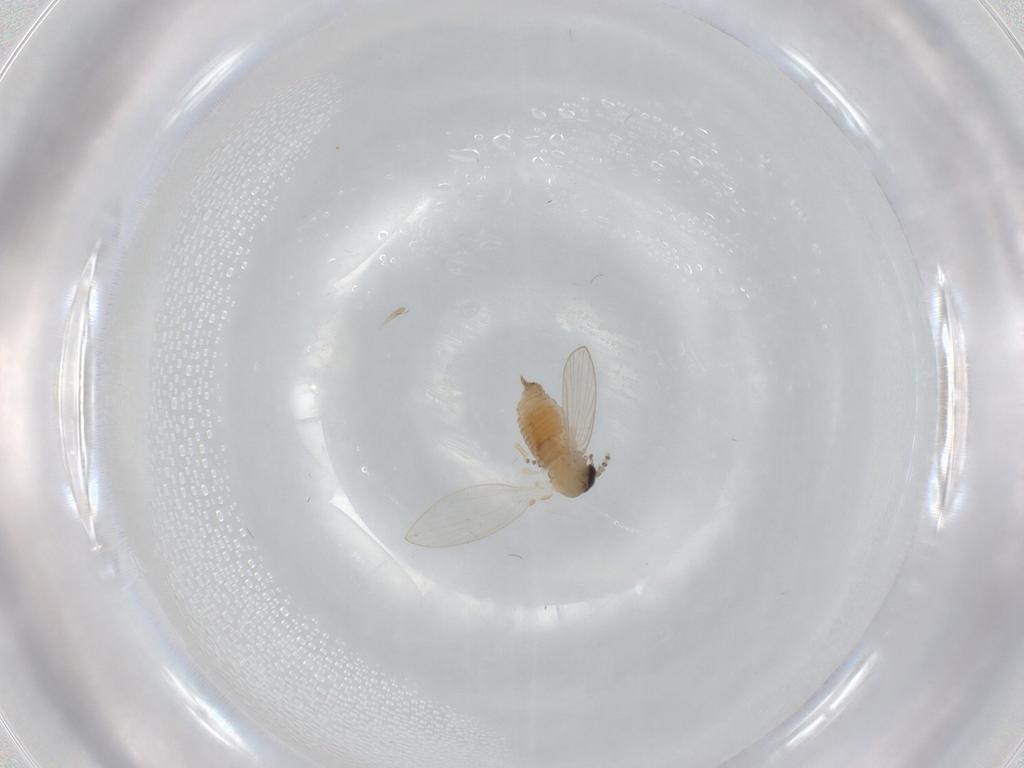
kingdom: Animalia
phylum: Arthropoda
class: Insecta
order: Diptera
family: Psychodidae
